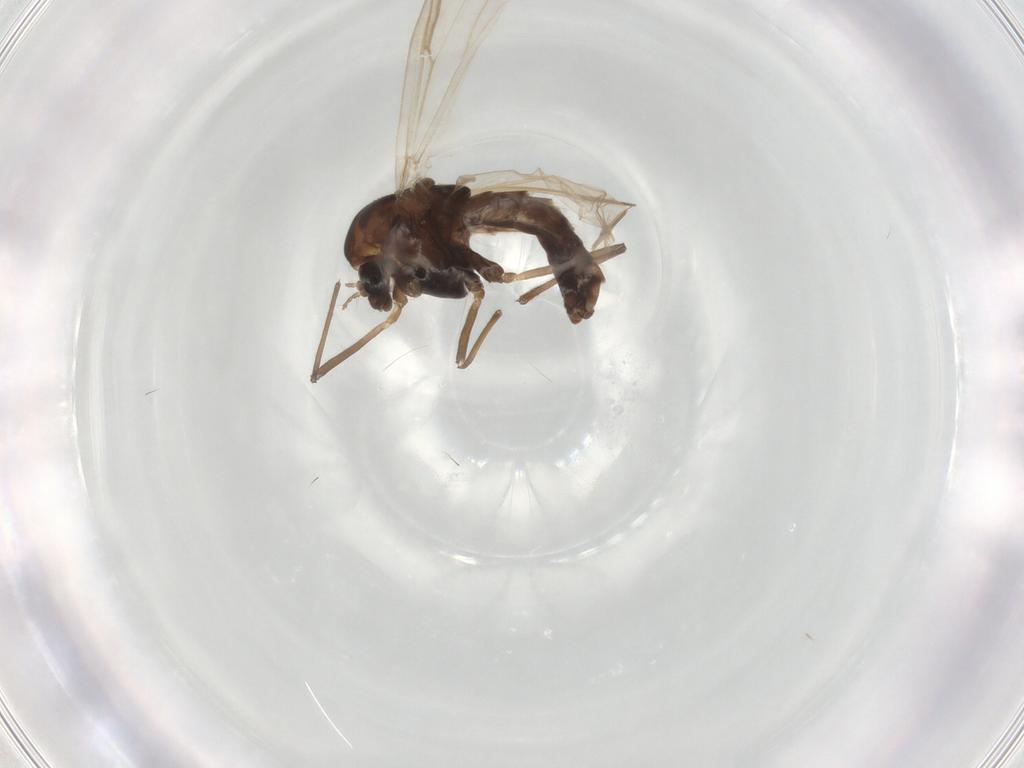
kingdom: Animalia
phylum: Arthropoda
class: Insecta
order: Diptera
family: Chironomidae
